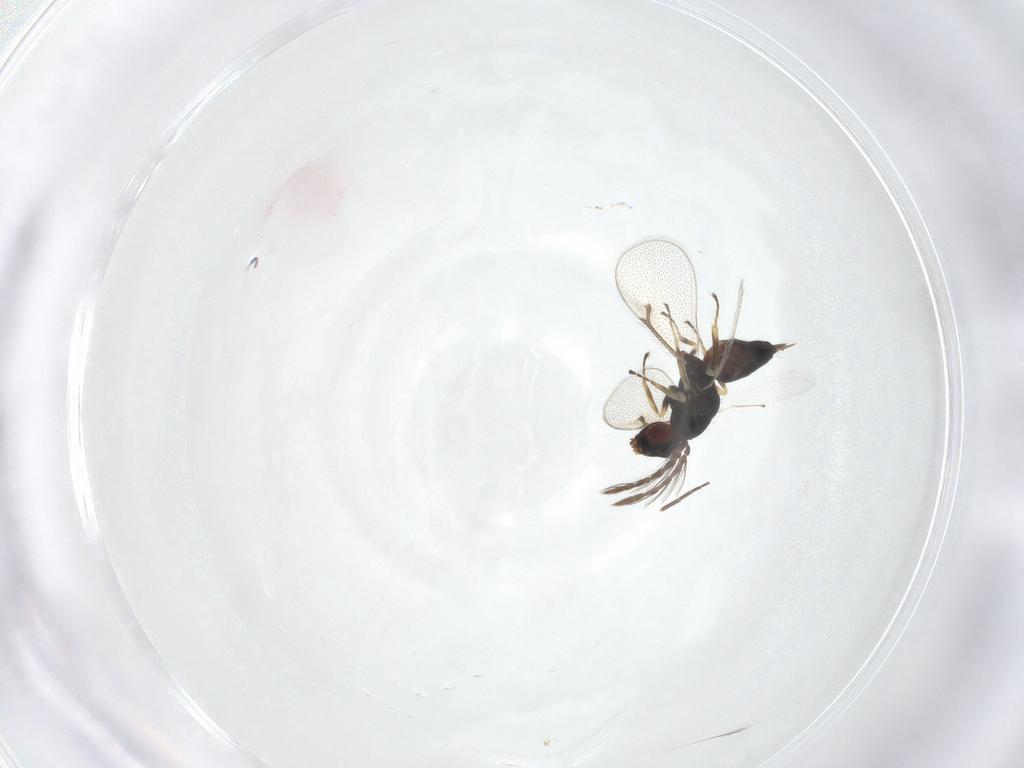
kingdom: Animalia
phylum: Arthropoda
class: Insecta
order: Hymenoptera
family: Eulophidae
